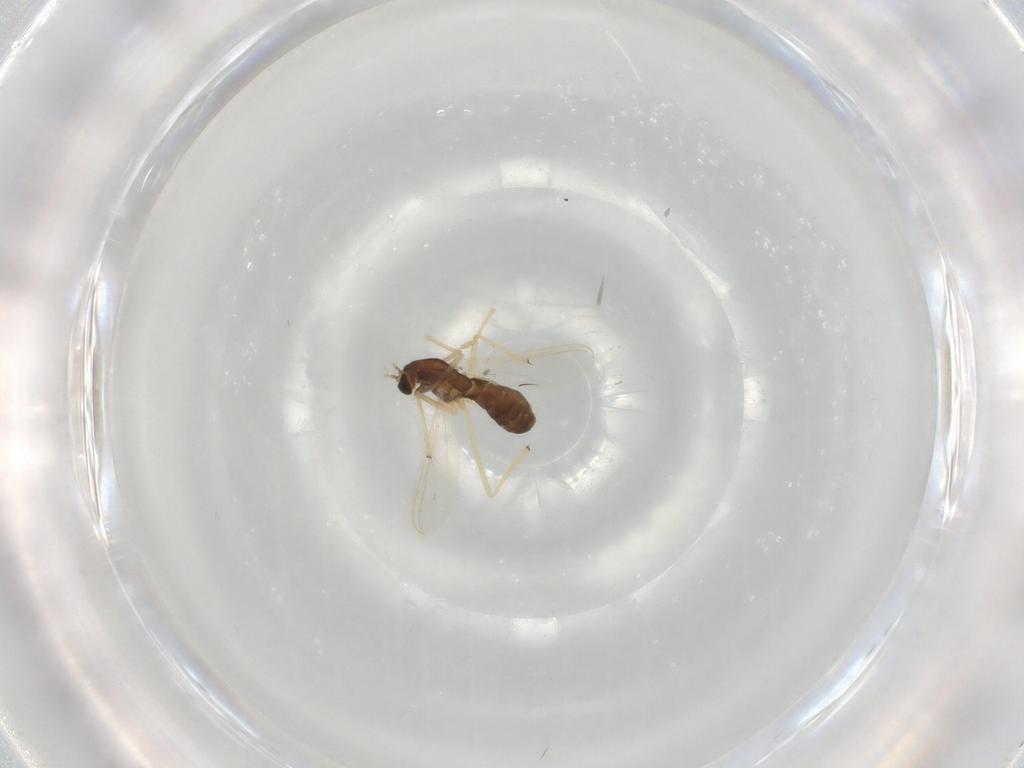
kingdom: Animalia
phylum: Arthropoda
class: Insecta
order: Diptera
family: Chironomidae
